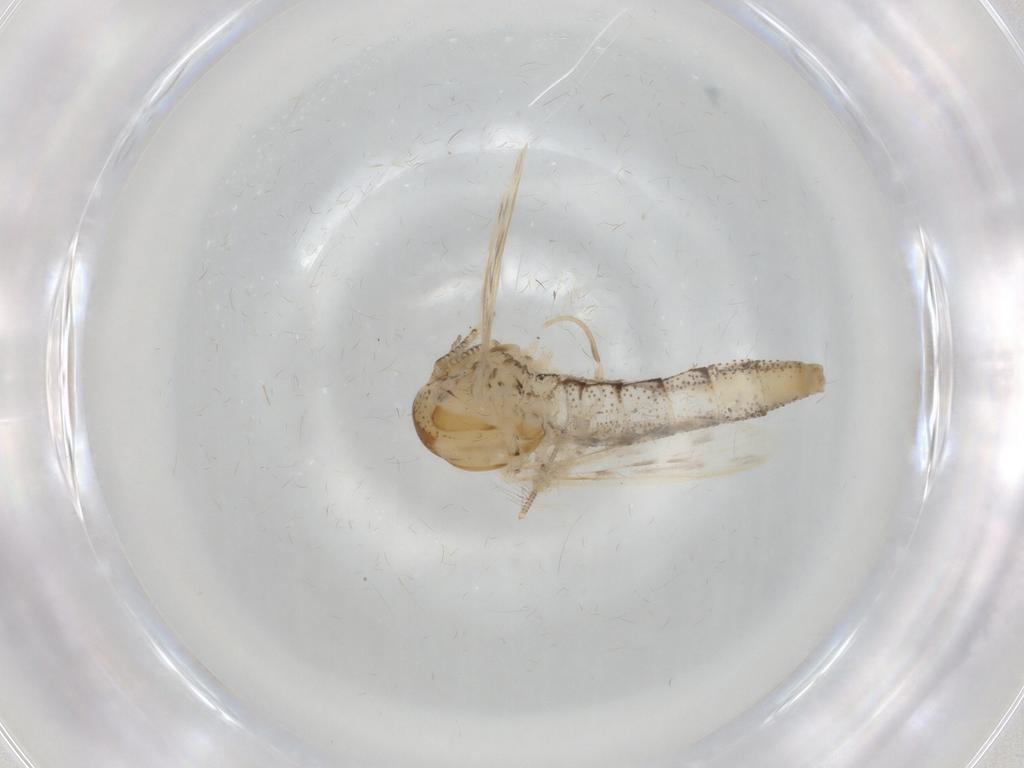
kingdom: Animalia
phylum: Arthropoda
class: Insecta
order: Diptera
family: Chaoboridae
